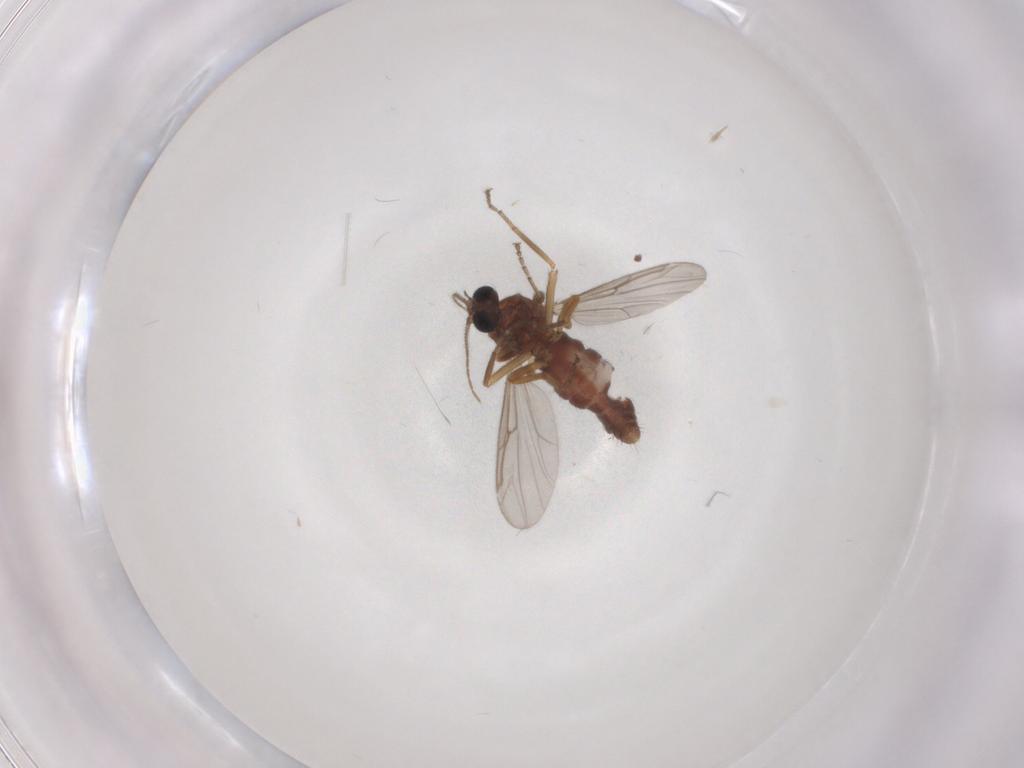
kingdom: Animalia
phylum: Arthropoda
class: Insecta
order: Diptera
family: Ceratopogonidae
